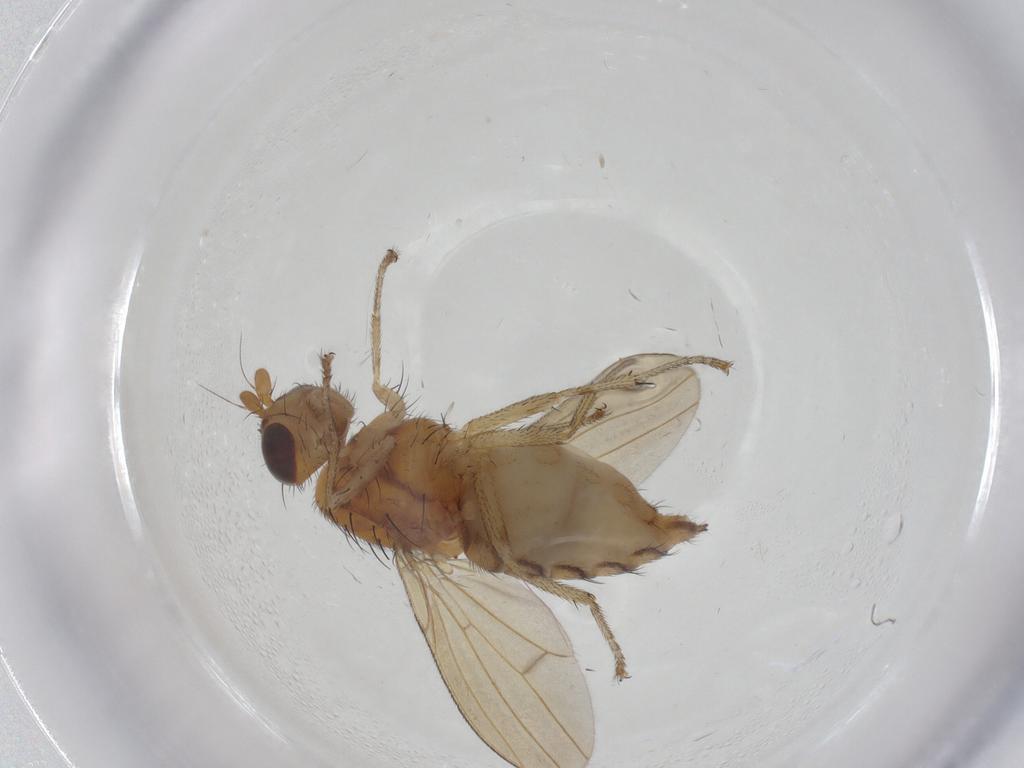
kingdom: Animalia
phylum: Arthropoda
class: Insecta
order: Diptera
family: Lauxaniidae
